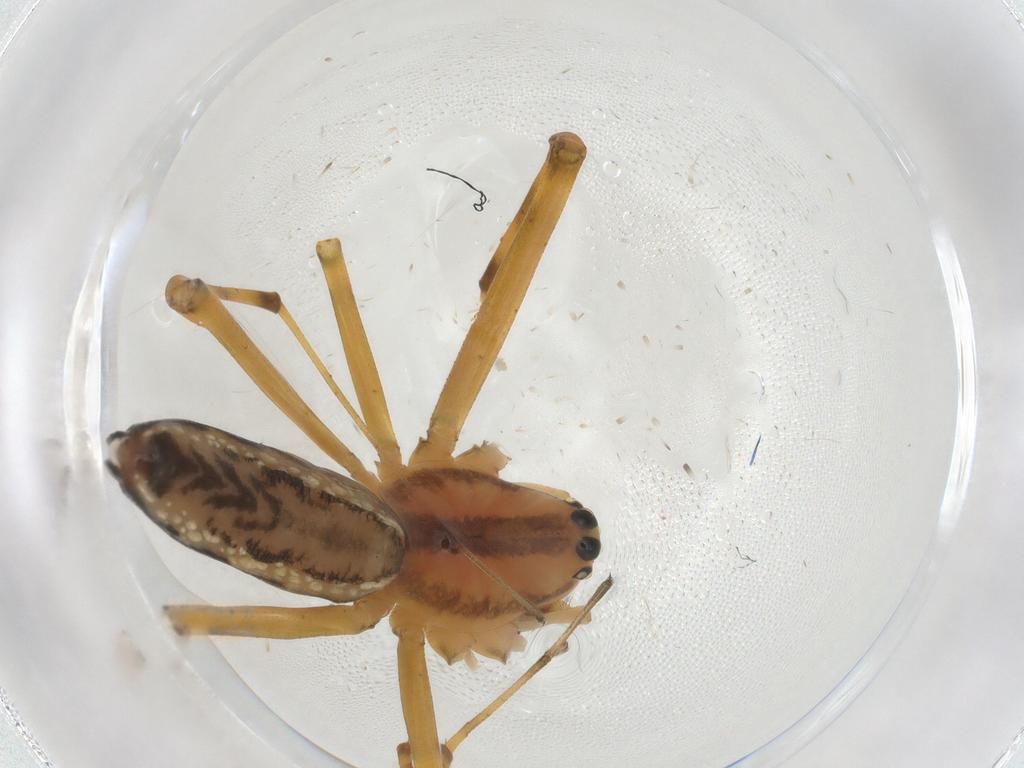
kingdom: Animalia
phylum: Arthropoda
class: Arachnida
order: Araneae
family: Linyphiidae
